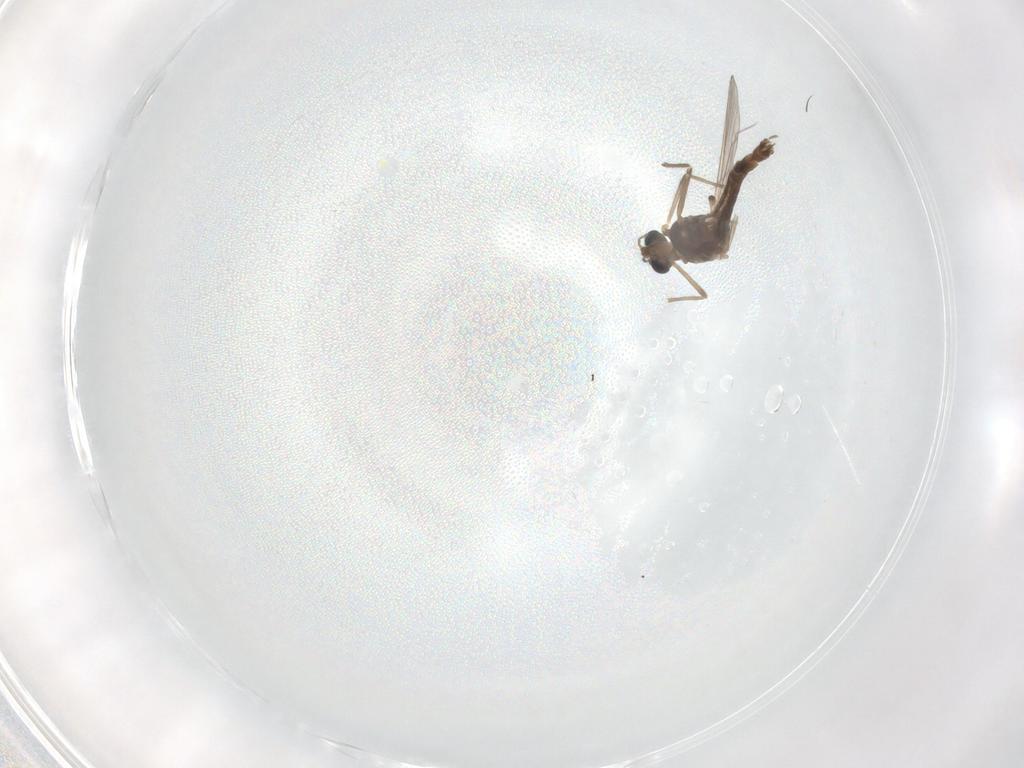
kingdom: Animalia
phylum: Arthropoda
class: Insecta
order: Diptera
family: Chironomidae
